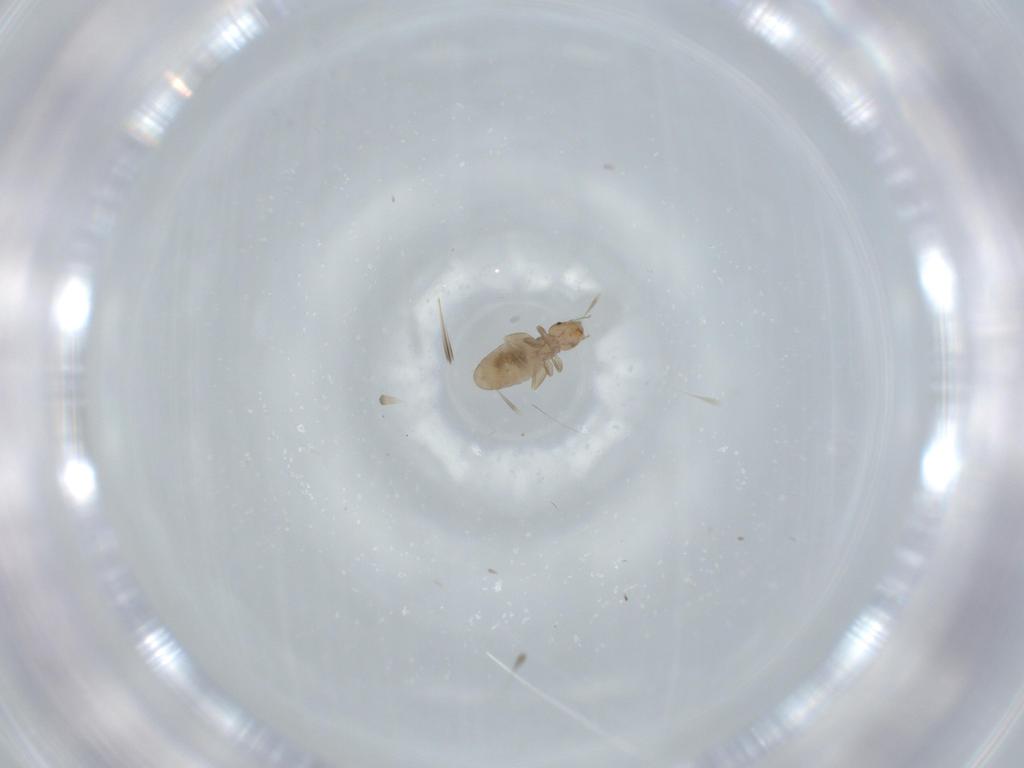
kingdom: Animalia
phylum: Arthropoda
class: Insecta
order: Psocodea
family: Liposcelididae
